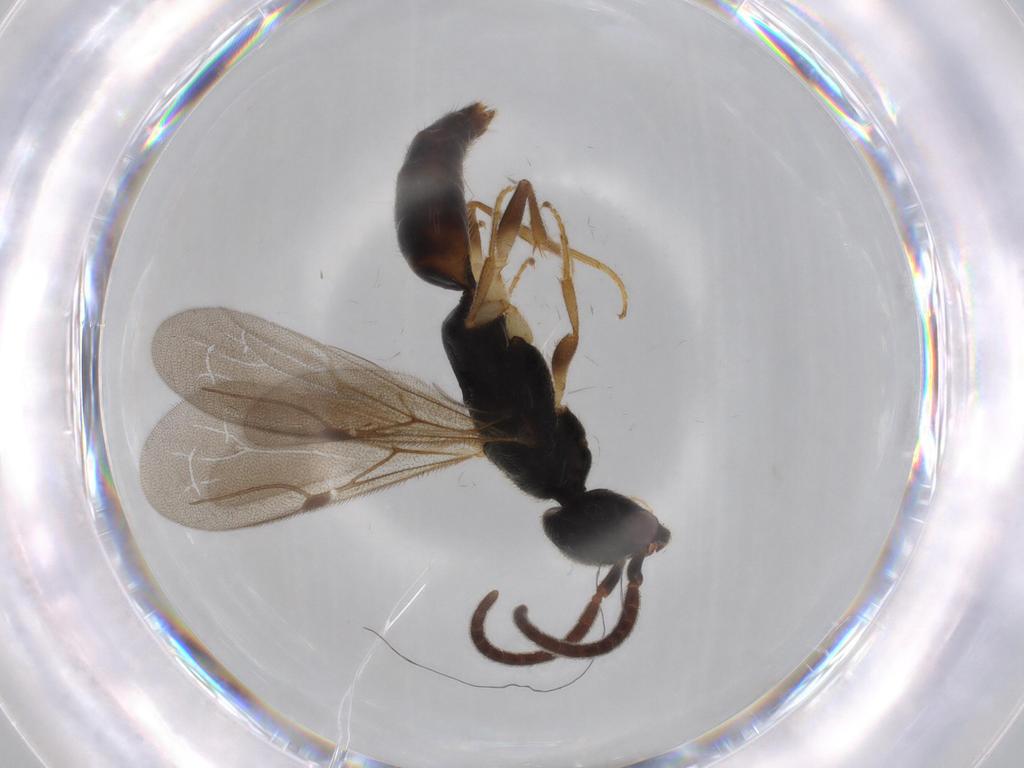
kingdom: Animalia
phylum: Arthropoda
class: Insecta
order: Hymenoptera
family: Bethylidae
